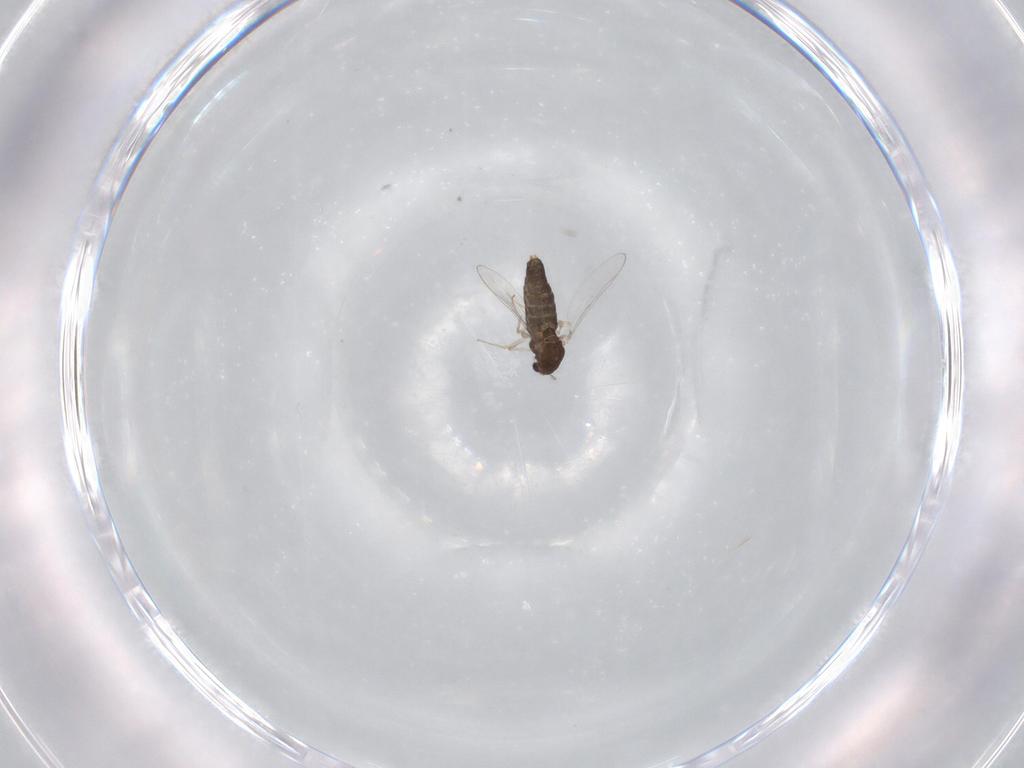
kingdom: Animalia
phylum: Arthropoda
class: Insecta
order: Diptera
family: Chironomidae
